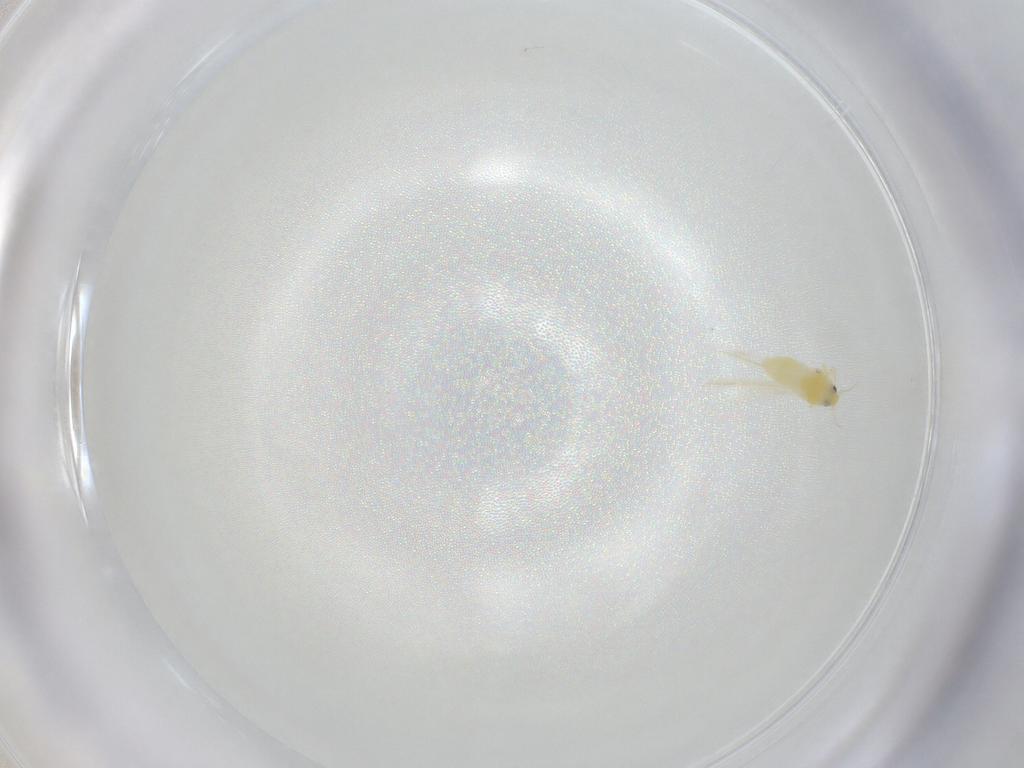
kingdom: Animalia
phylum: Arthropoda
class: Insecta
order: Hemiptera
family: Aleyrodidae
